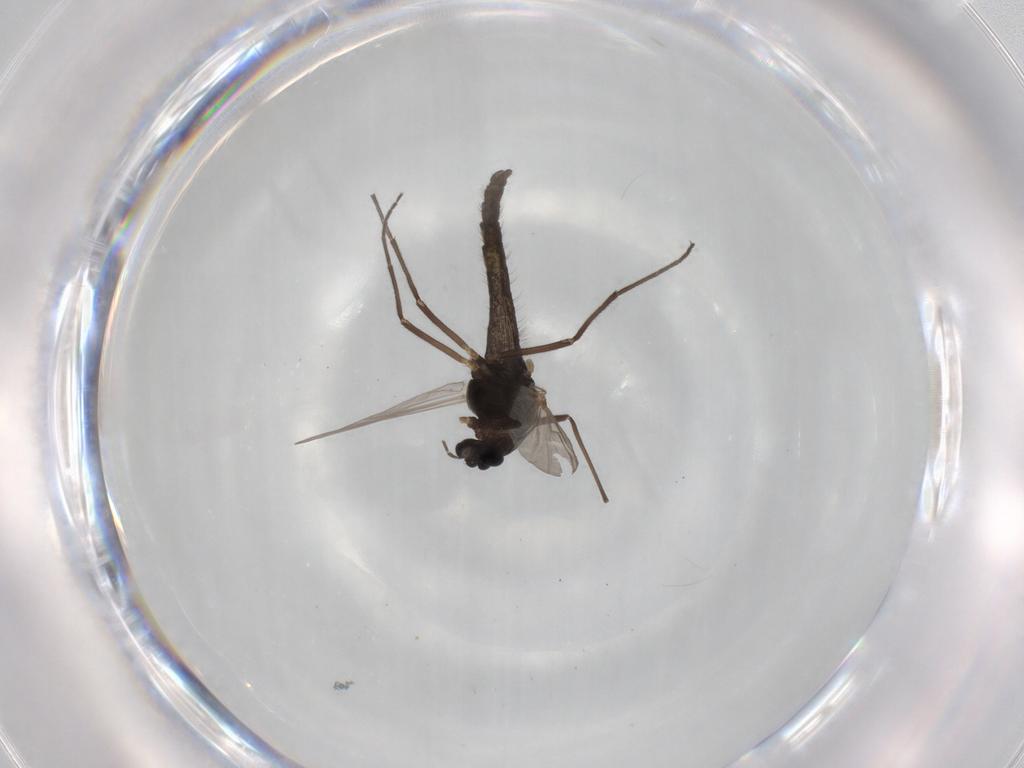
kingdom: Animalia
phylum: Arthropoda
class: Insecta
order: Diptera
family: Chironomidae
